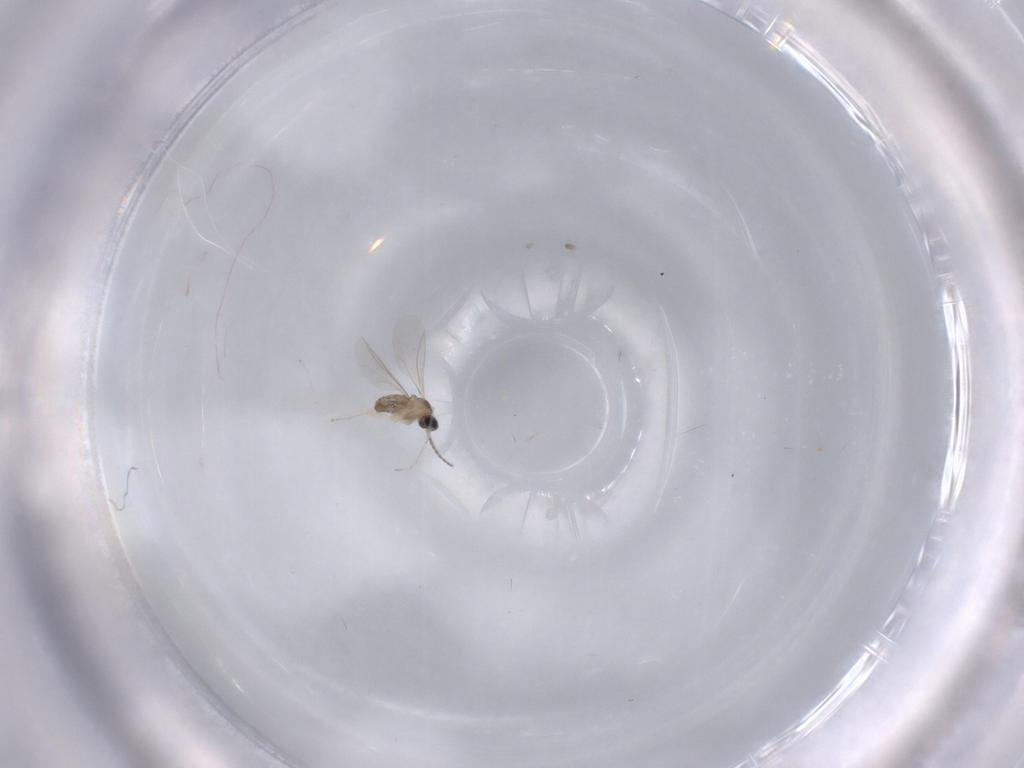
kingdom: Animalia
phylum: Arthropoda
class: Insecta
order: Diptera
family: Cecidomyiidae
